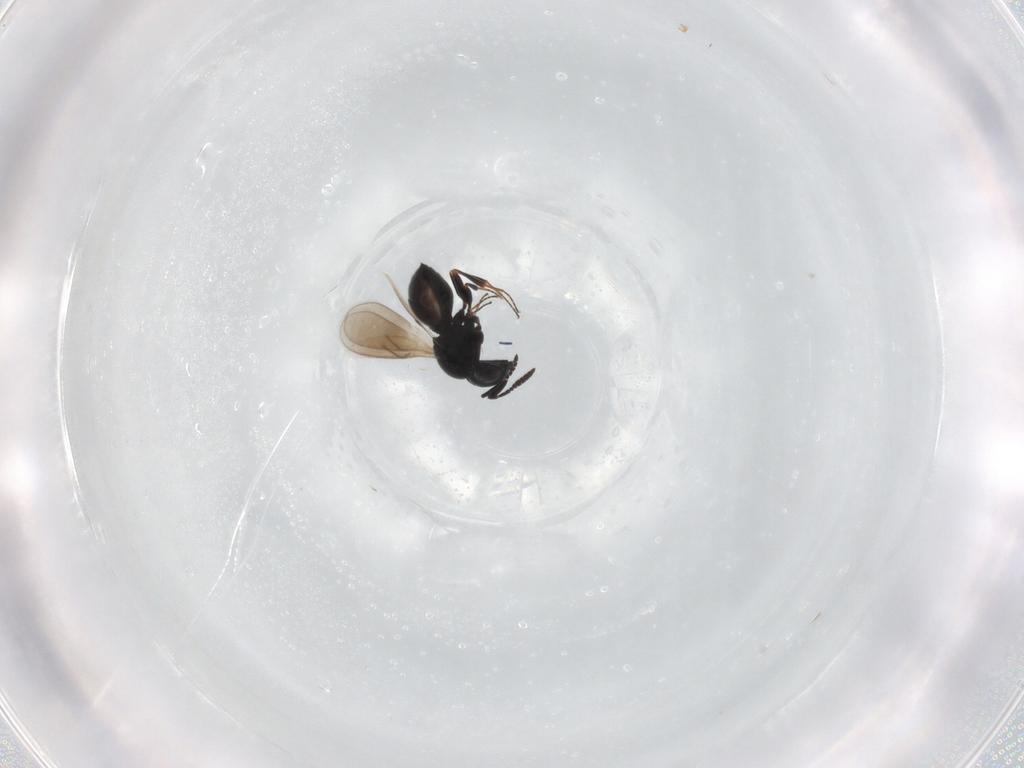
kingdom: Animalia
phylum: Arthropoda
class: Insecta
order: Hymenoptera
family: Scelionidae
